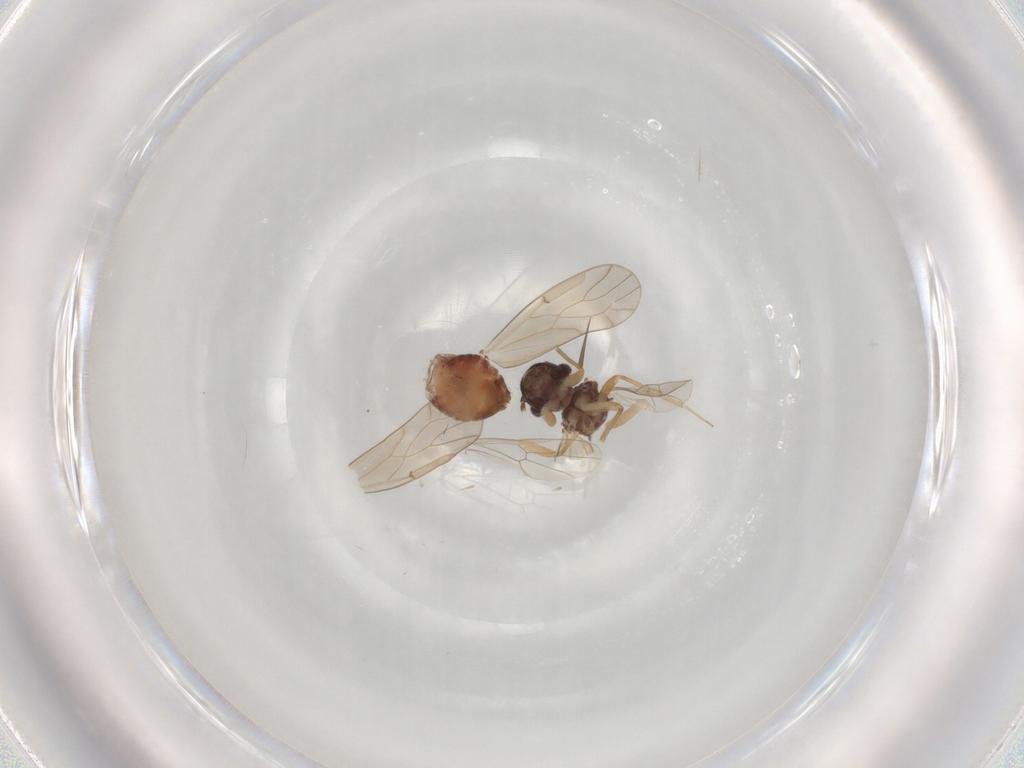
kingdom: Animalia
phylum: Arthropoda
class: Insecta
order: Psocodea
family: Ectopsocidae
